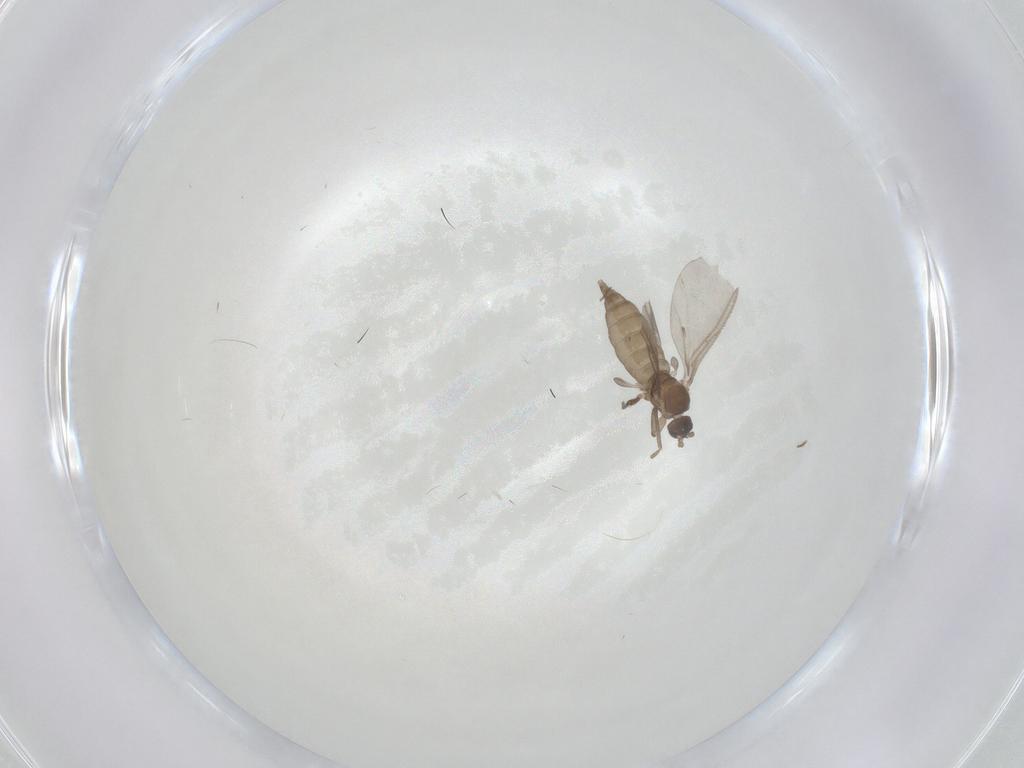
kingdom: Animalia
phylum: Arthropoda
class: Insecta
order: Diptera
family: Chironomidae
